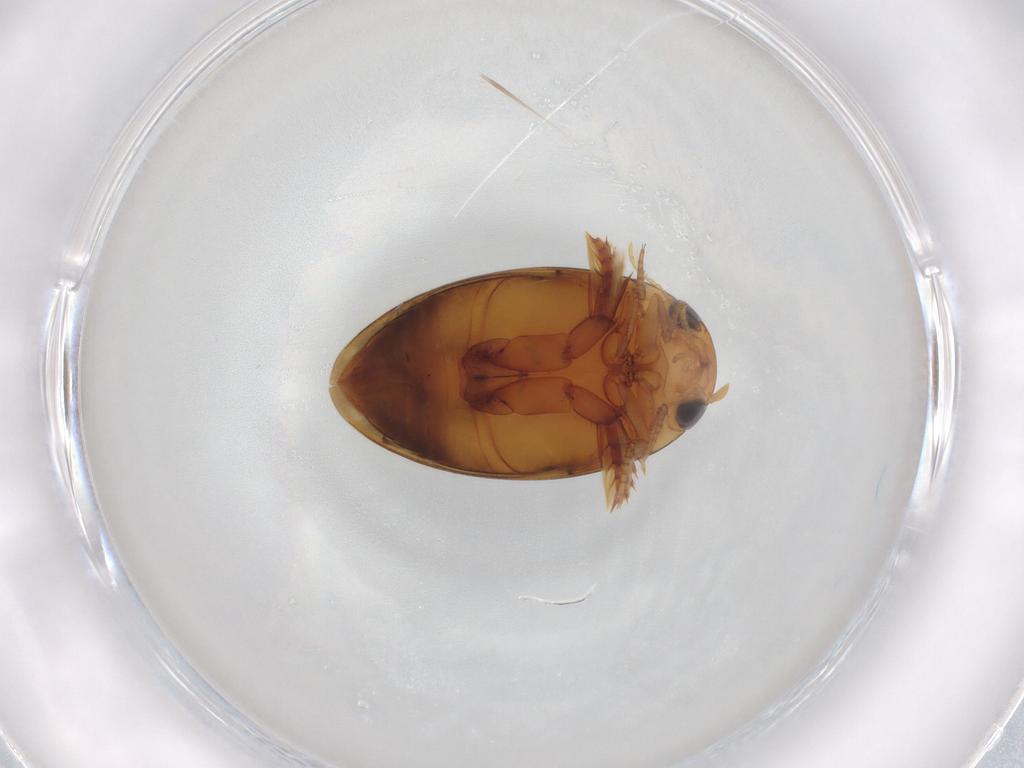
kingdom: Animalia
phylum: Arthropoda
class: Insecta
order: Coleoptera
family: Dytiscidae
